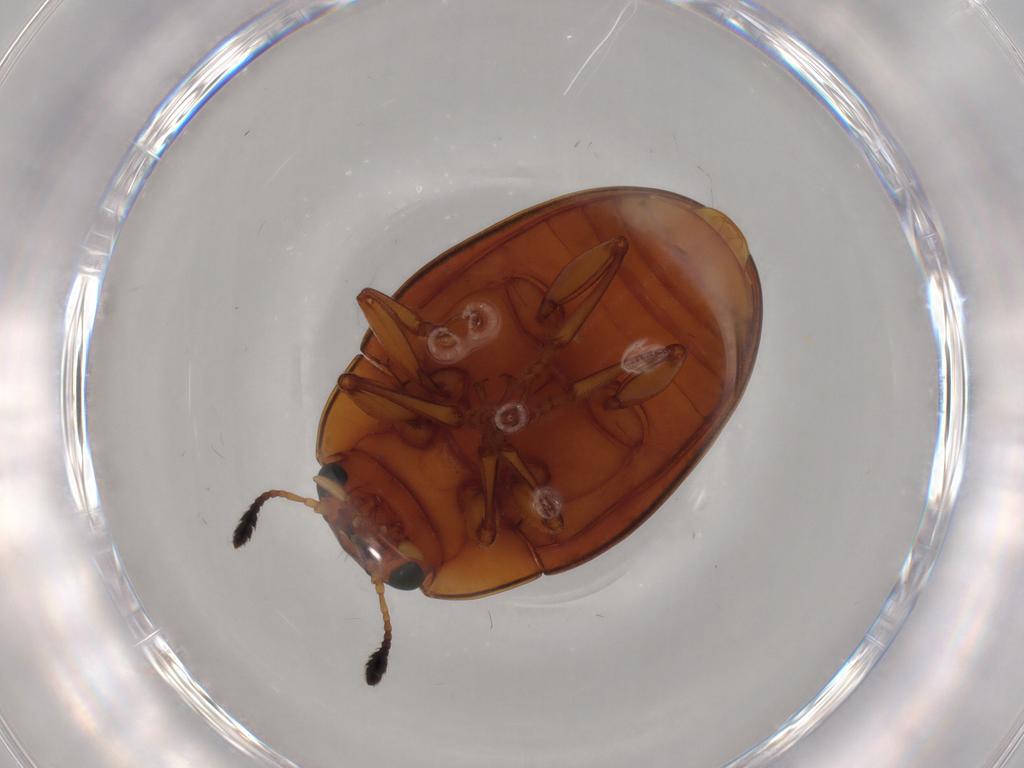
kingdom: Animalia
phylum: Arthropoda
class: Insecta
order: Coleoptera
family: Erotylidae
